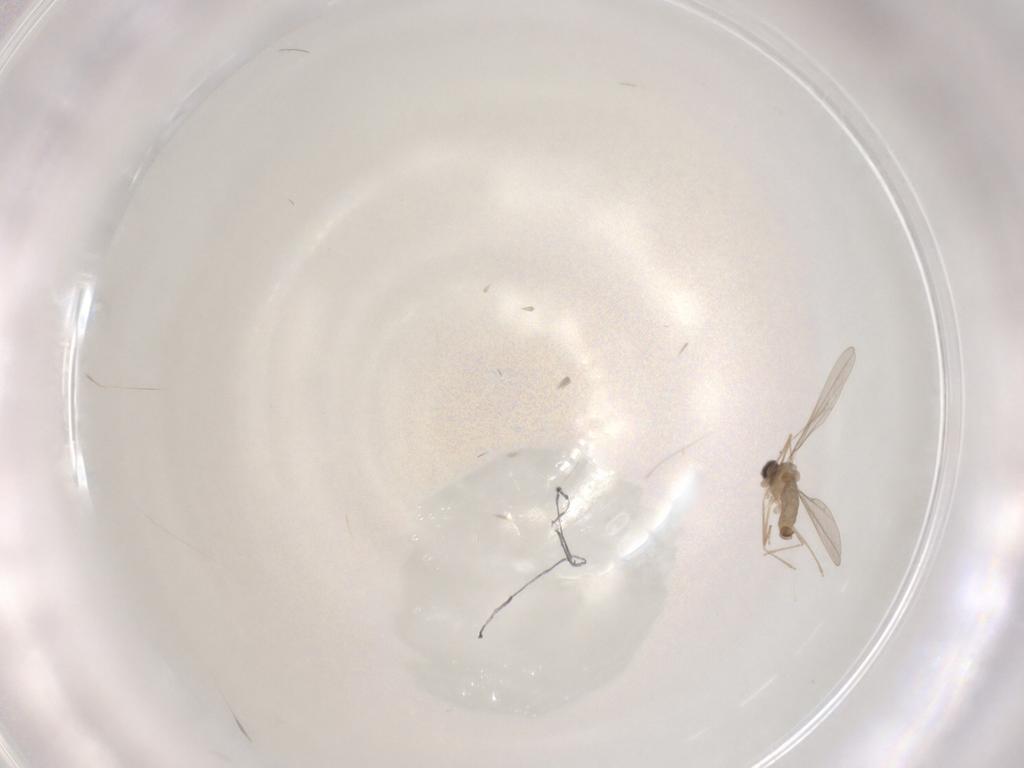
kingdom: Animalia
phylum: Arthropoda
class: Insecta
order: Diptera
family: Cecidomyiidae
